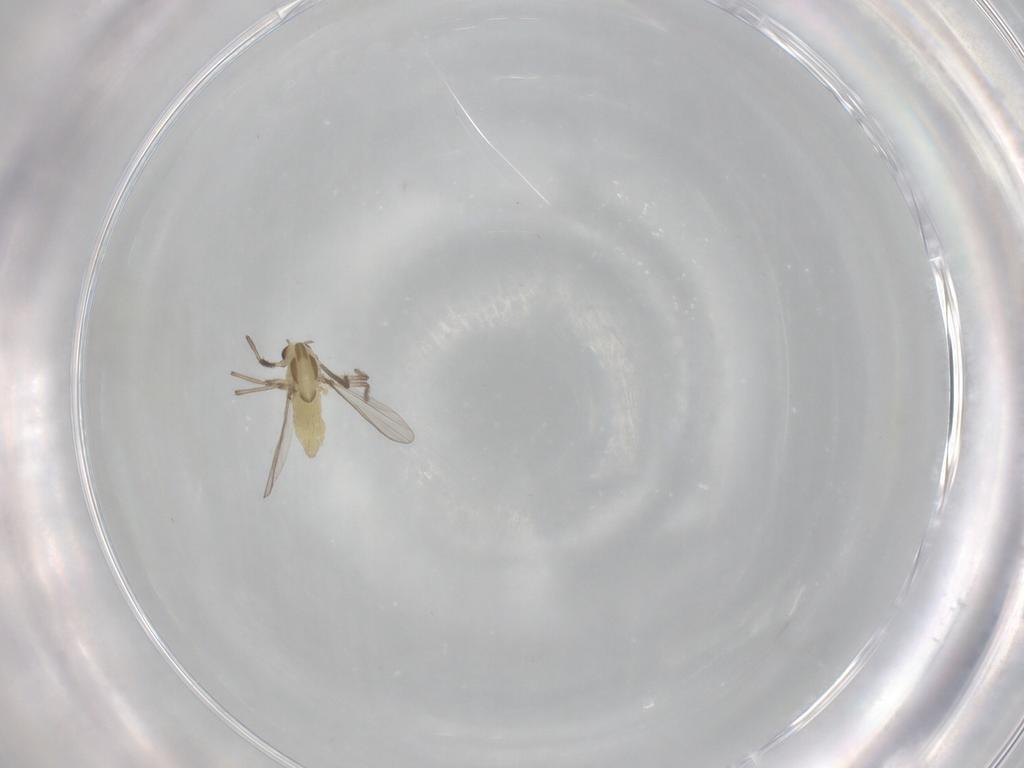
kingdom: Animalia
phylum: Arthropoda
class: Insecta
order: Diptera
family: Chironomidae
